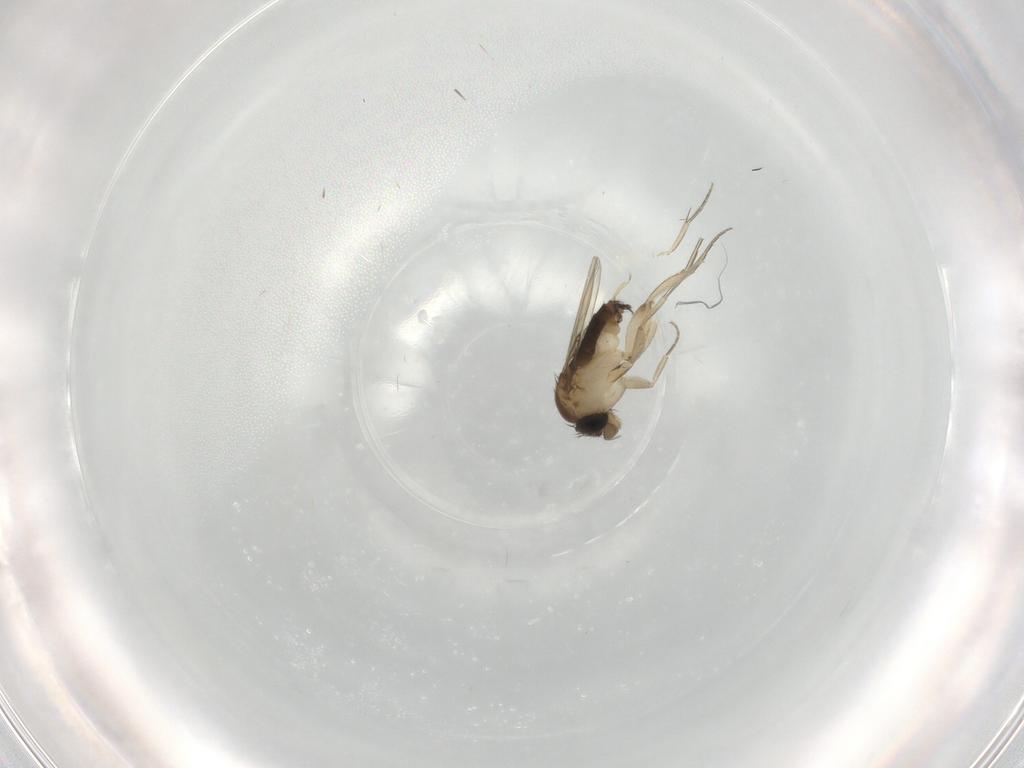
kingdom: Animalia
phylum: Arthropoda
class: Insecta
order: Diptera
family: Phoridae
